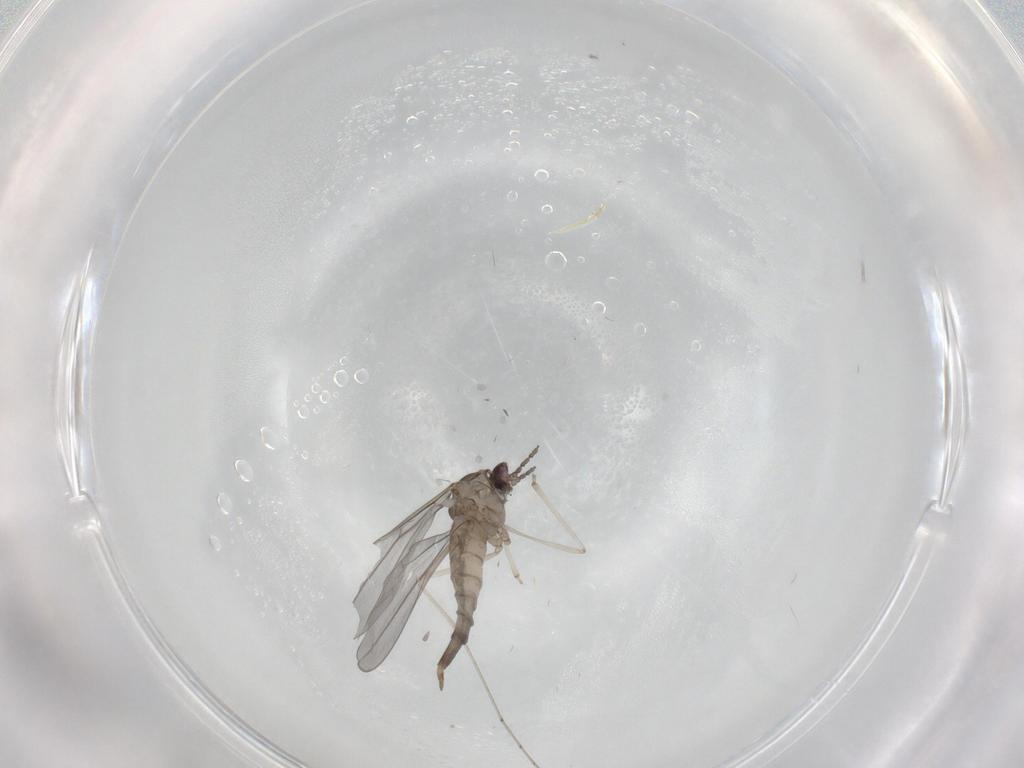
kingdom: Animalia
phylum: Arthropoda
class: Insecta
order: Diptera
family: Cecidomyiidae
